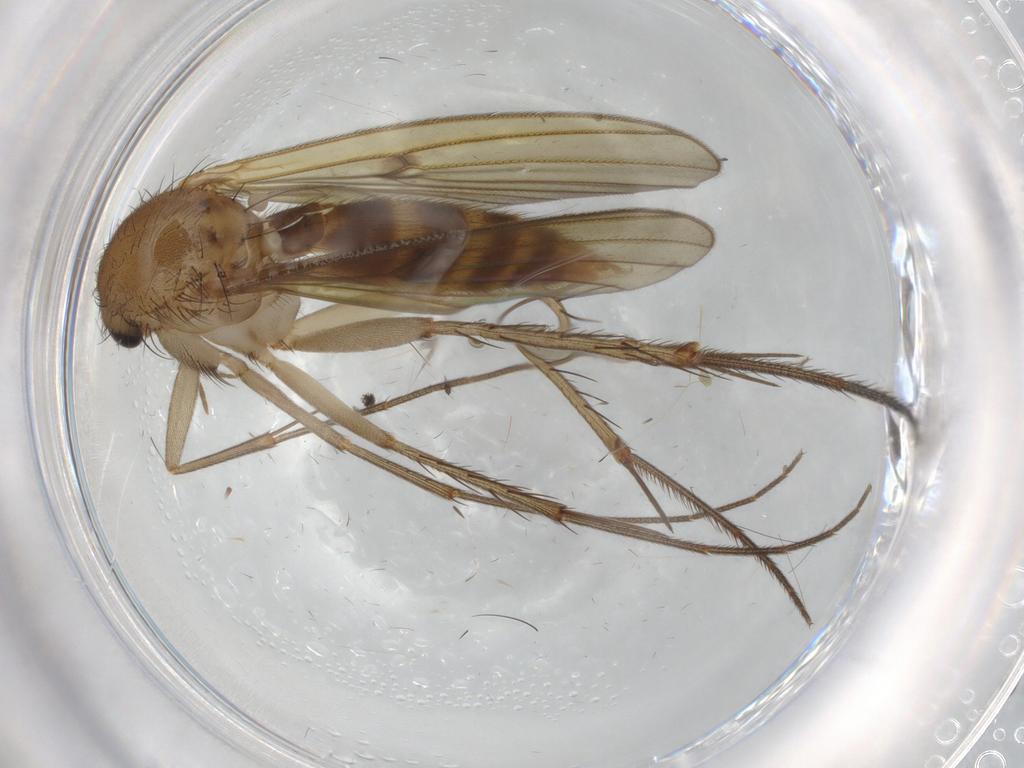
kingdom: Animalia
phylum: Arthropoda
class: Insecta
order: Diptera
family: Mycetophilidae
